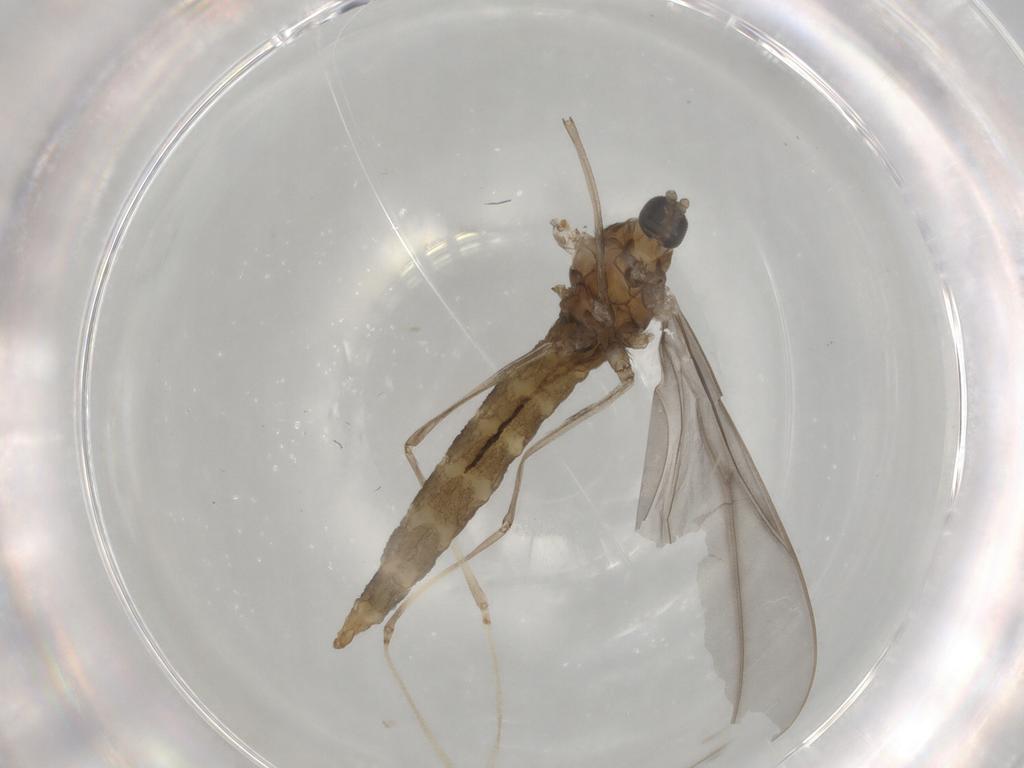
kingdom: Animalia
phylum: Arthropoda
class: Insecta
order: Diptera
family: Cecidomyiidae
